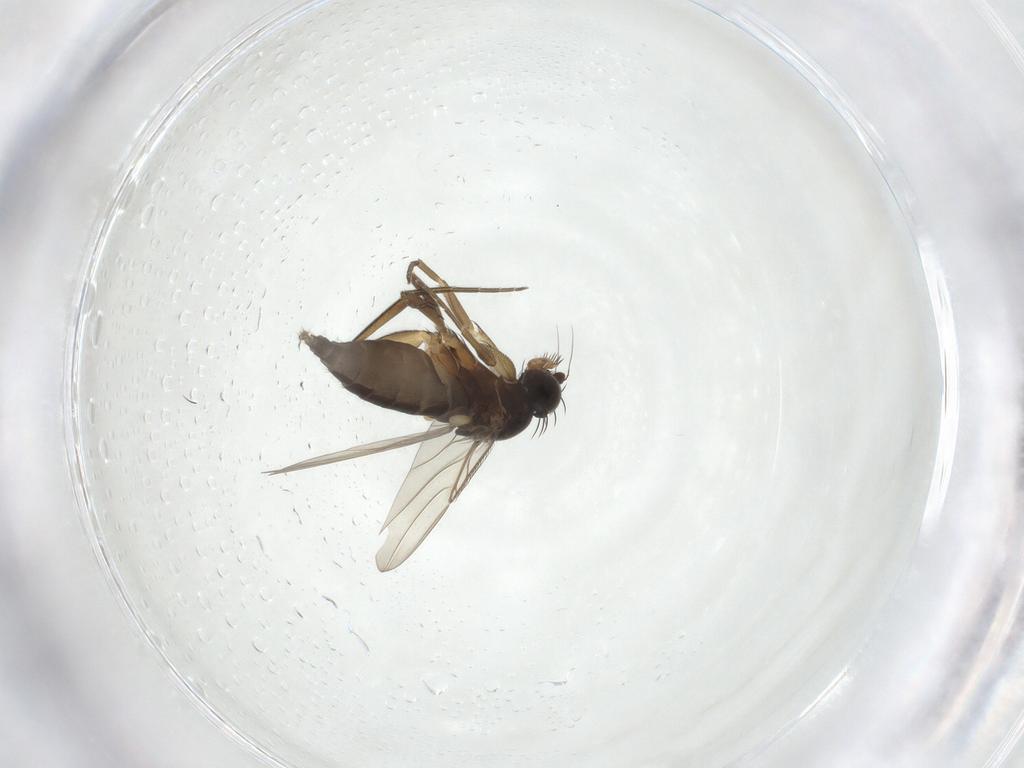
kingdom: Animalia
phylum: Arthropoda
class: Insecta
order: Diptera
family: Phoridae
